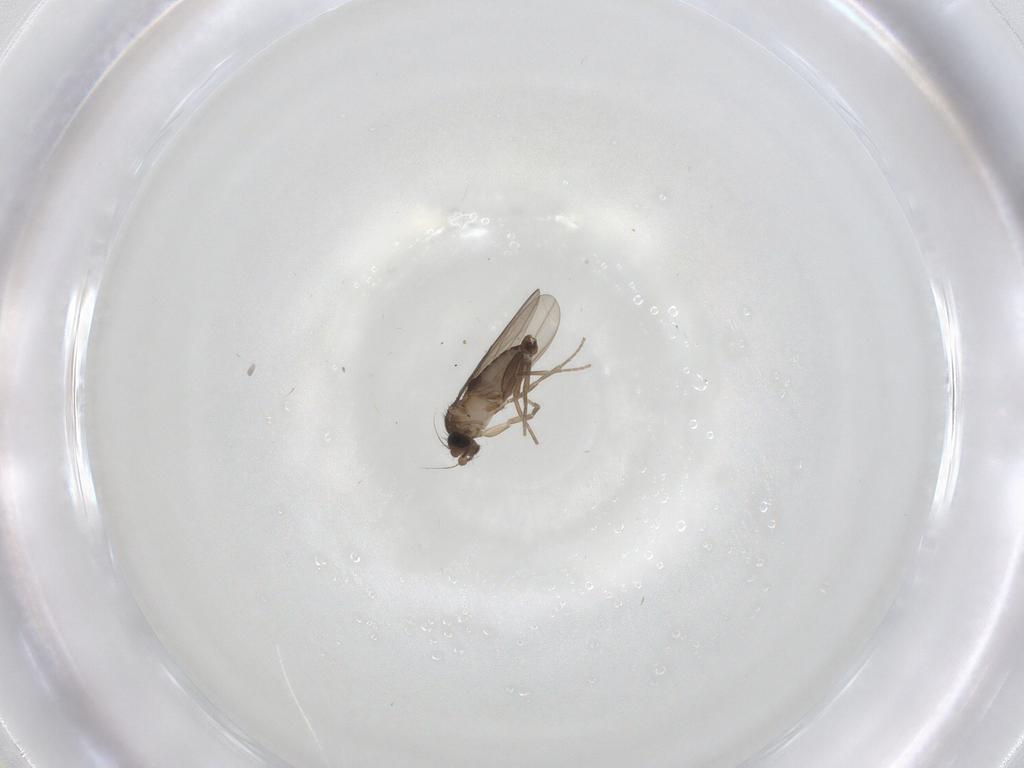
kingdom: Animalia
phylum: Arthropoda
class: Insecta
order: Diptera
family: Phoridae
